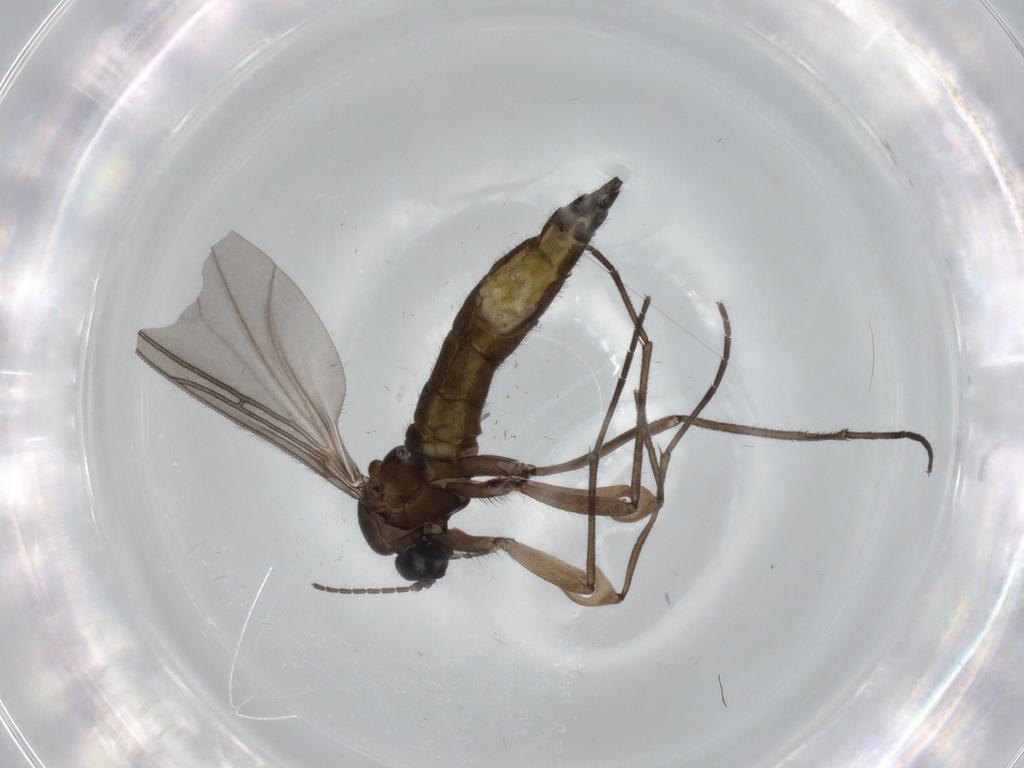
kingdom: Animalia
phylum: Arthropoda
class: Insecta
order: Diptera
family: Sciaridae
